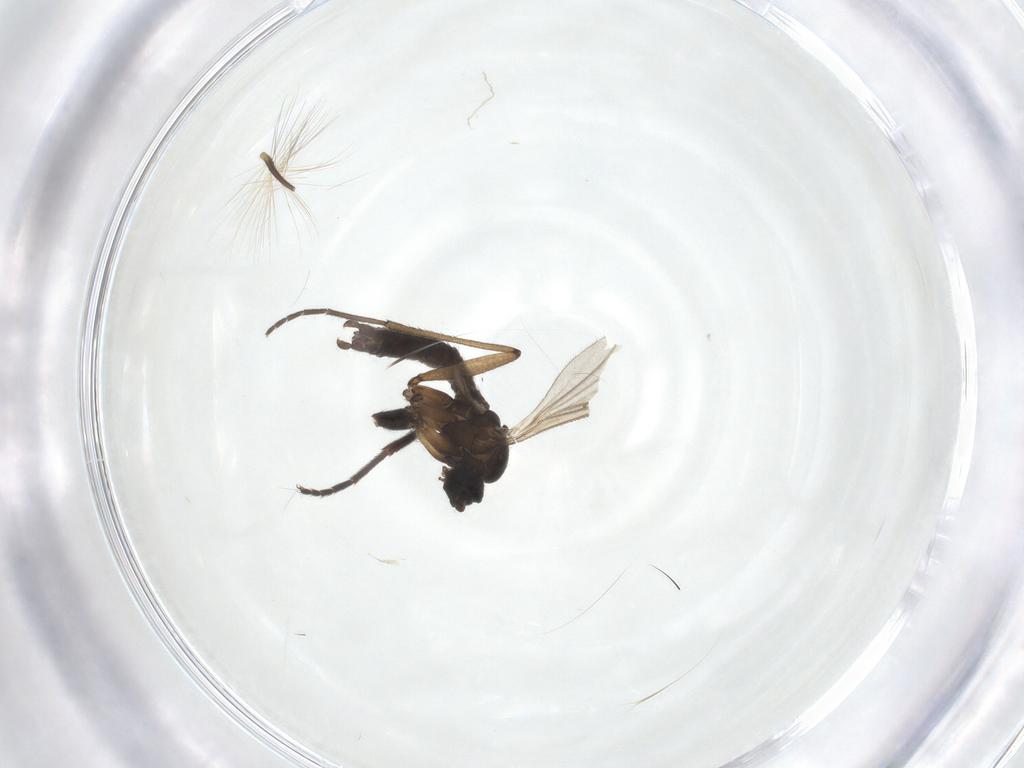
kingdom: Animalia
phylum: Arthropoda
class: Insecta
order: Diptera
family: Sciaridae
